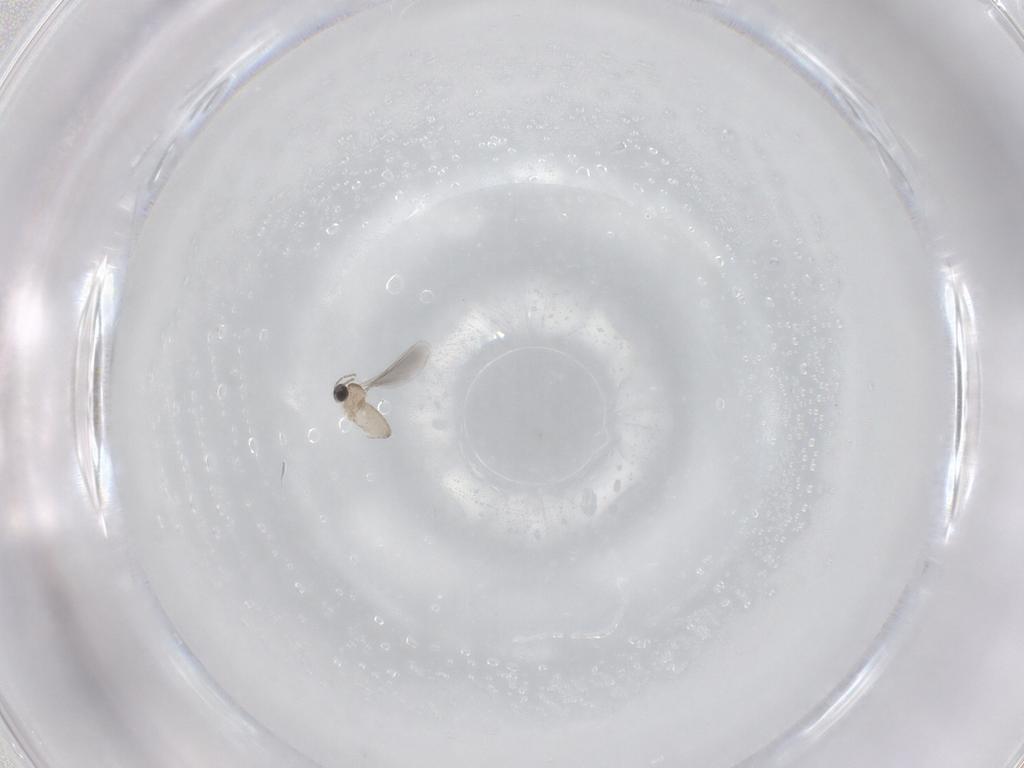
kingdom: Animalia
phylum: Arthropoda
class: Insecta
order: Diptera
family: Cecidomyiidae
